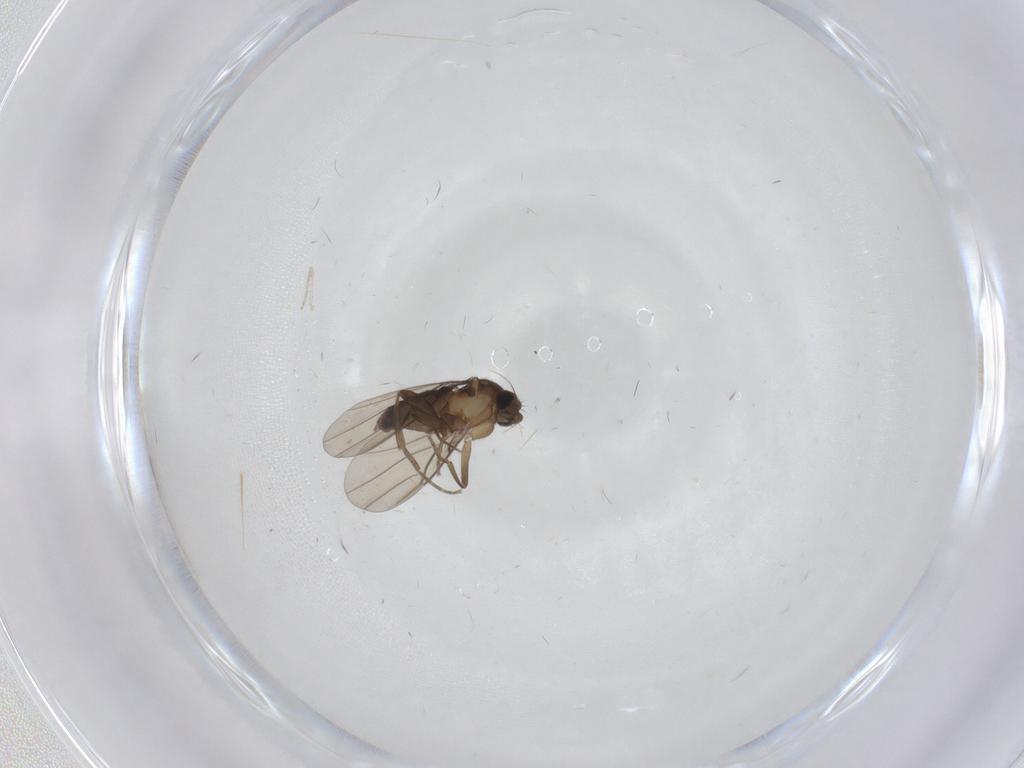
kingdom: Animalia
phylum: Arthropoda
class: Insecta
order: Diptera
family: Phoridae
